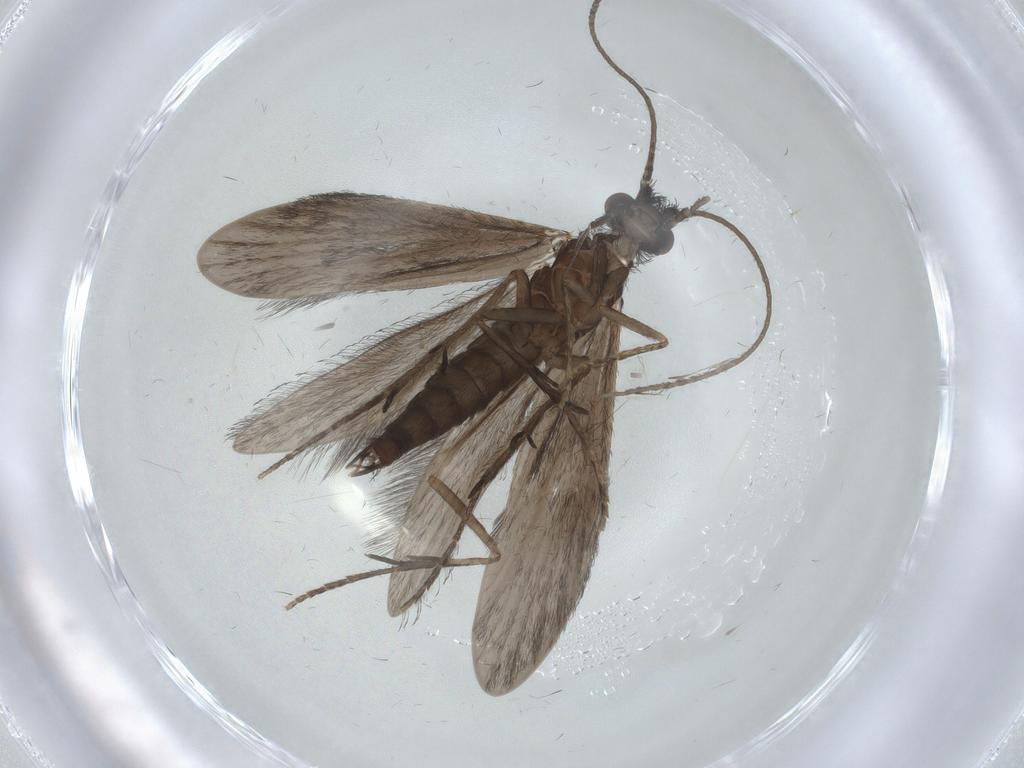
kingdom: Animalia
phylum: Arthropoda
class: Insecta
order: Trichoptera
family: Xiphocentronidae
